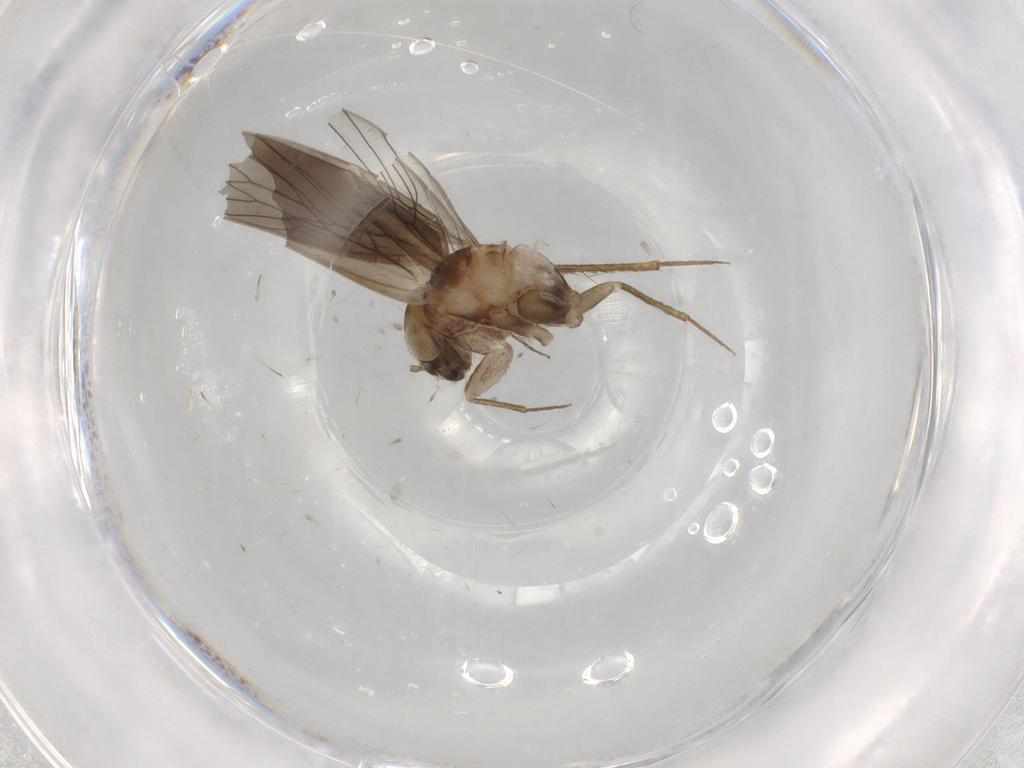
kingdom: Animalia
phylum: Arthropoda
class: Insecta
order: Psocodea
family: Lepidopsocidae
